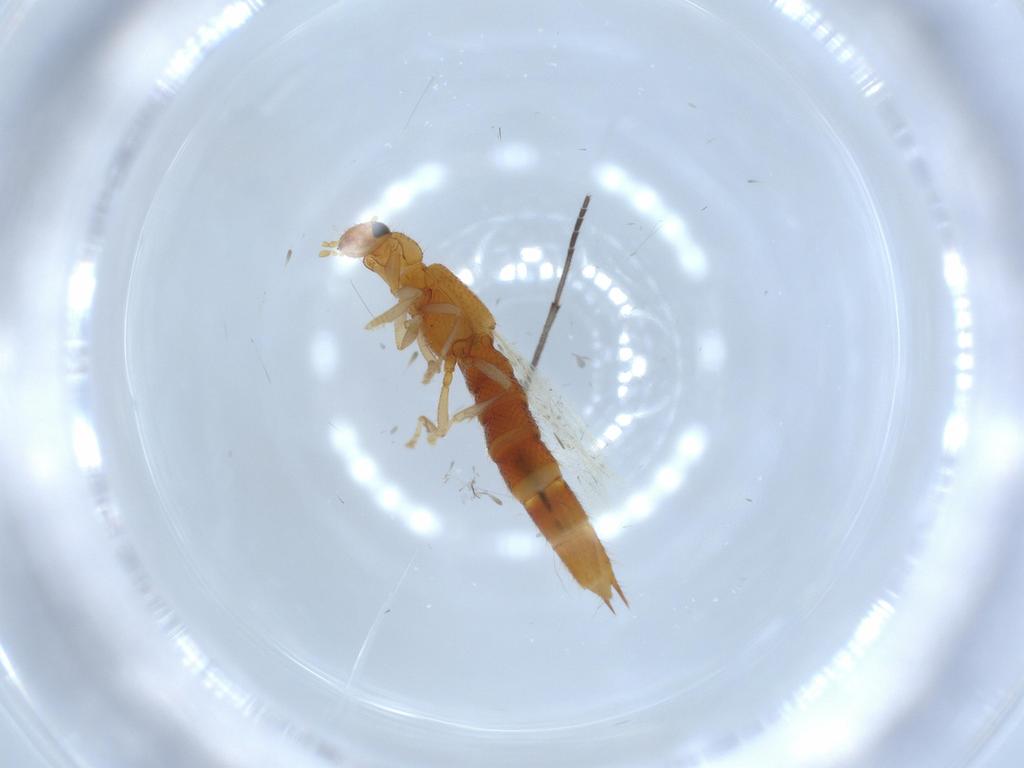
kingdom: Animalia
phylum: Arthropoda
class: Insecta
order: Coleoptera
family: Staphylinidae
